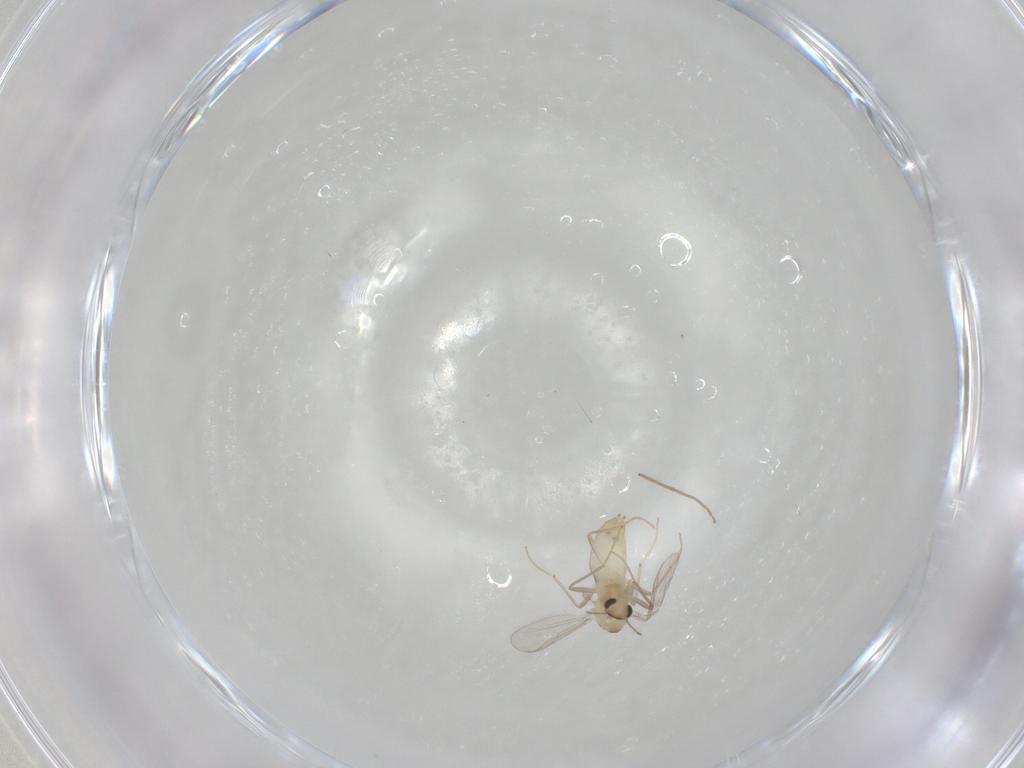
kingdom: Animalia
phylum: Arthropoda
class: Insecta
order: Diptera
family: Chironomidae
